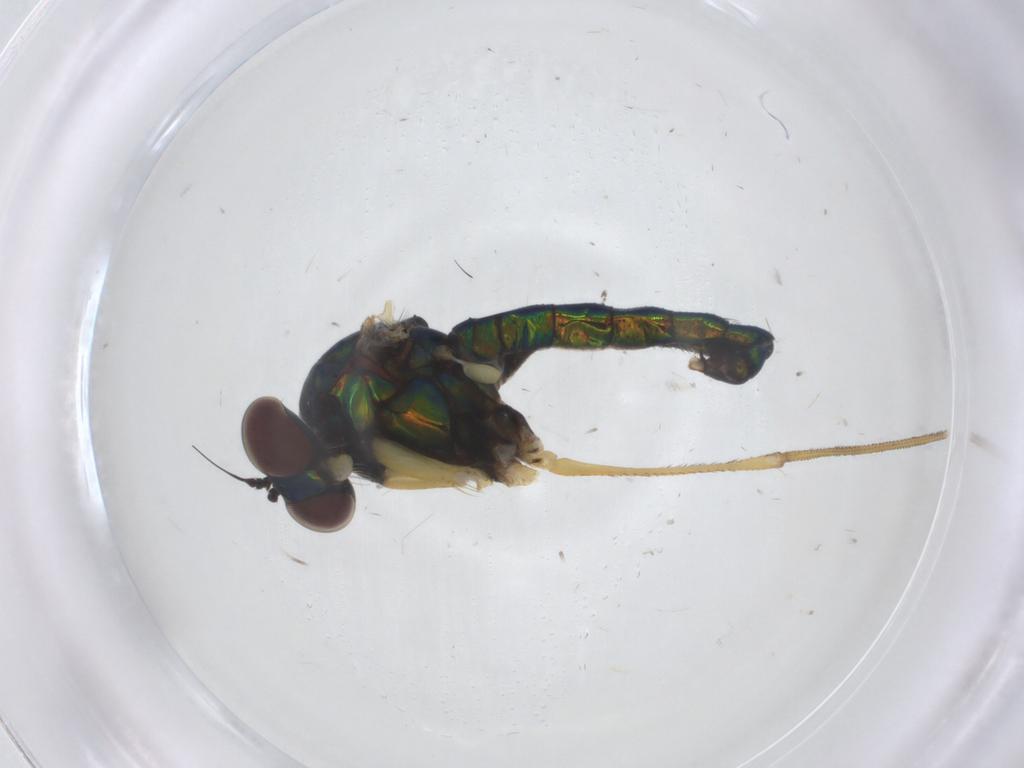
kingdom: Animalia
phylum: Arthropoda
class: Insecta
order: Diptera
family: Dolichopodidae
